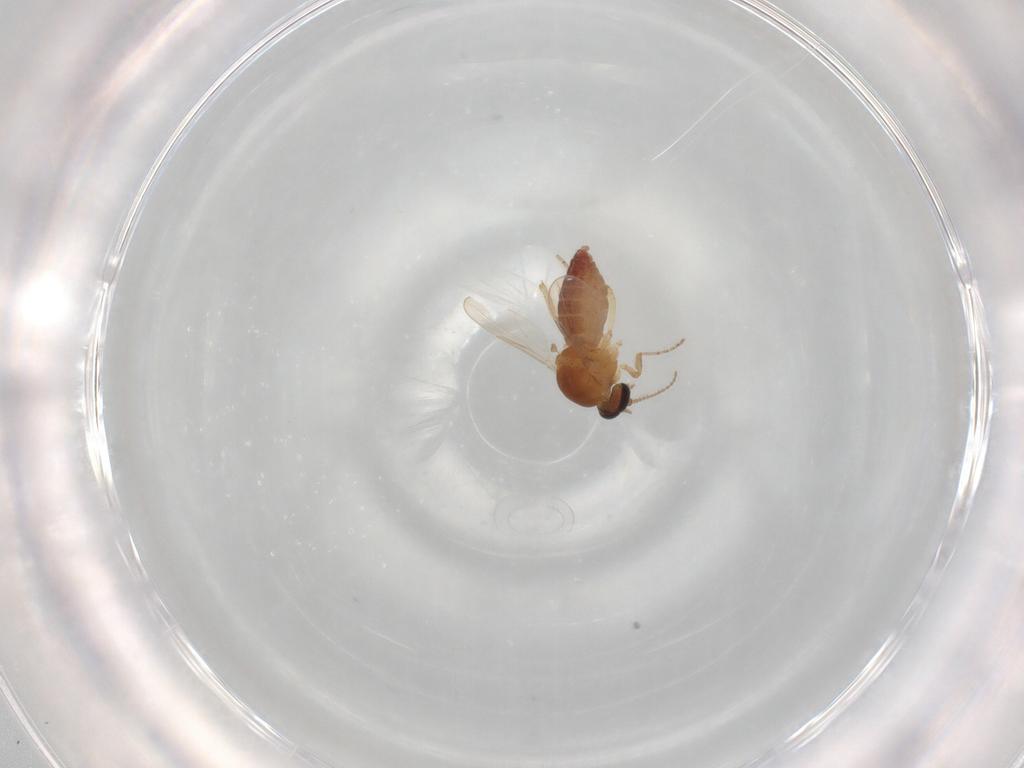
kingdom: Animalia
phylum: Arthropoda
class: Insecta
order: Diptera
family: Ceratopogonidae
